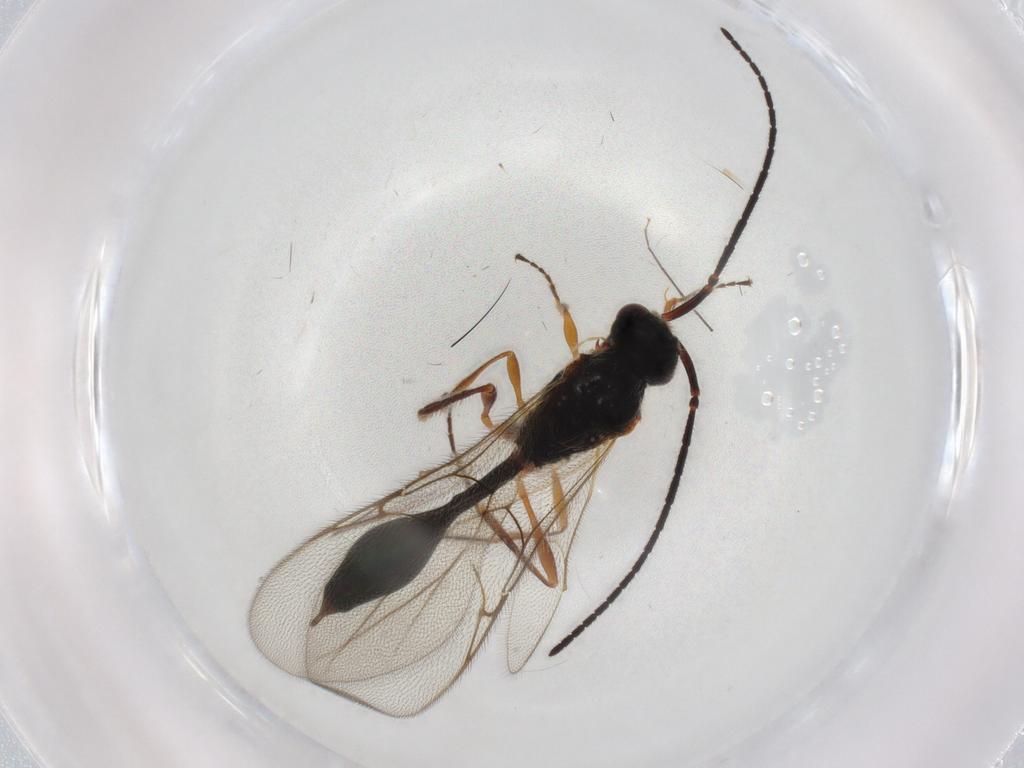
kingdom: Animalia
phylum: Arthropoda
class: Insecta
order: Hymenoptera
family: Diapriidae
